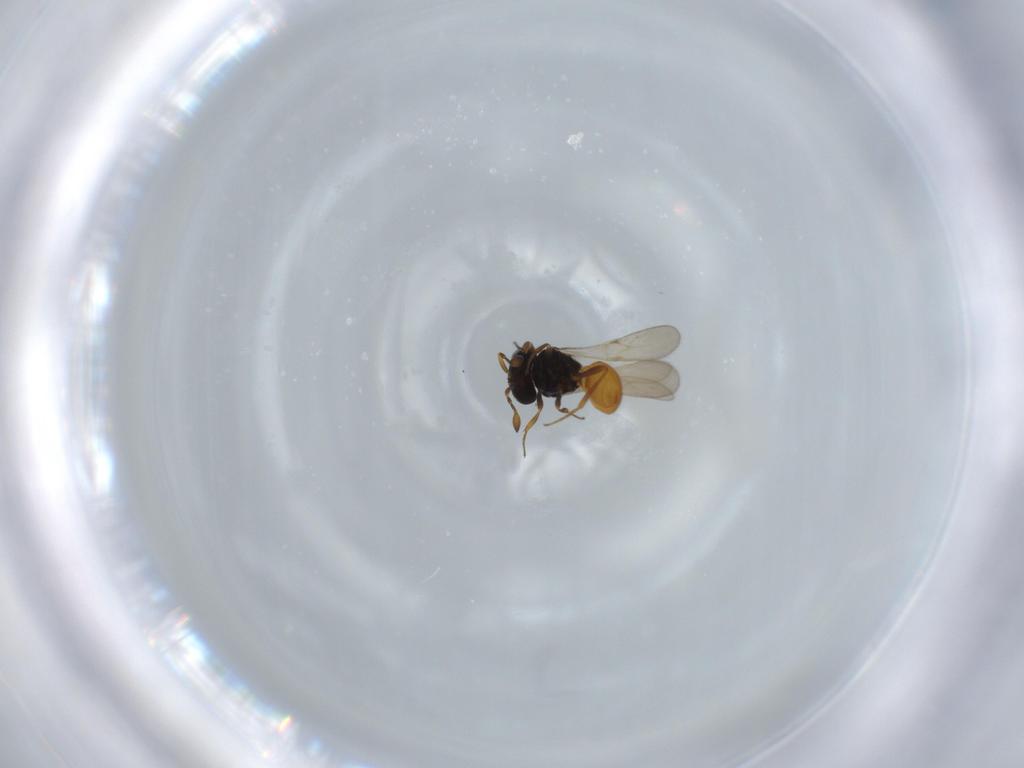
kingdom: Animalia
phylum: Arthropoda
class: Insecta
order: Hymenoptera
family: Scelionidae
